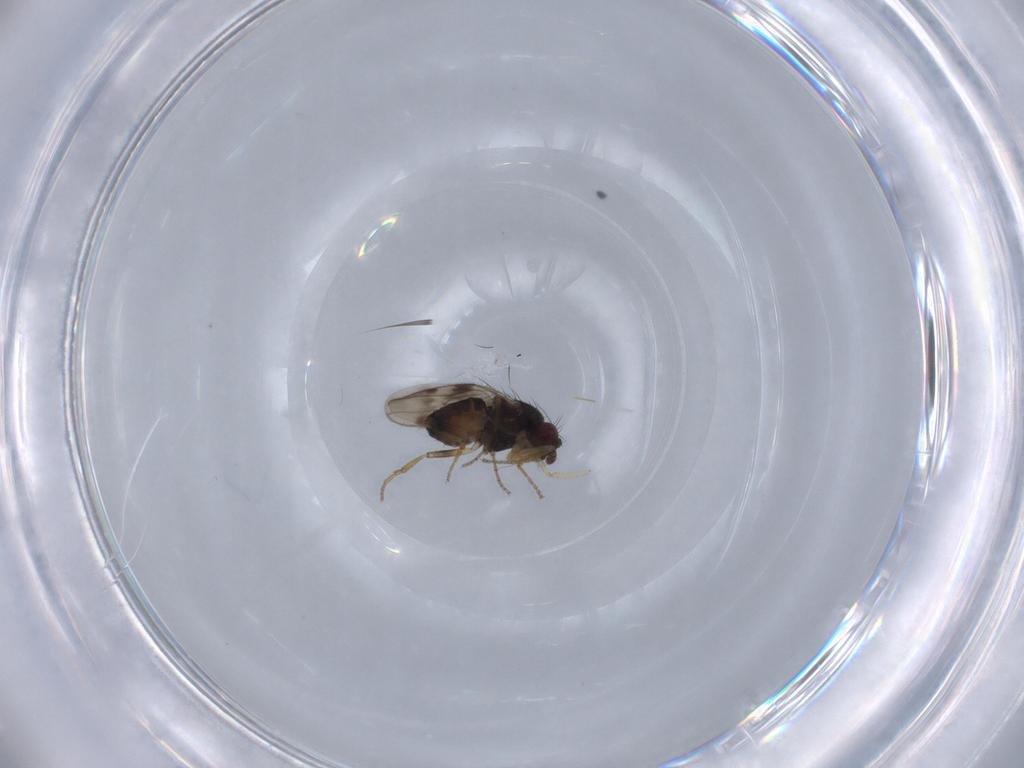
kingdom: Animalia
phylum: Arthropoda
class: Insecta
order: Diptera
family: Sphaeroceridae
